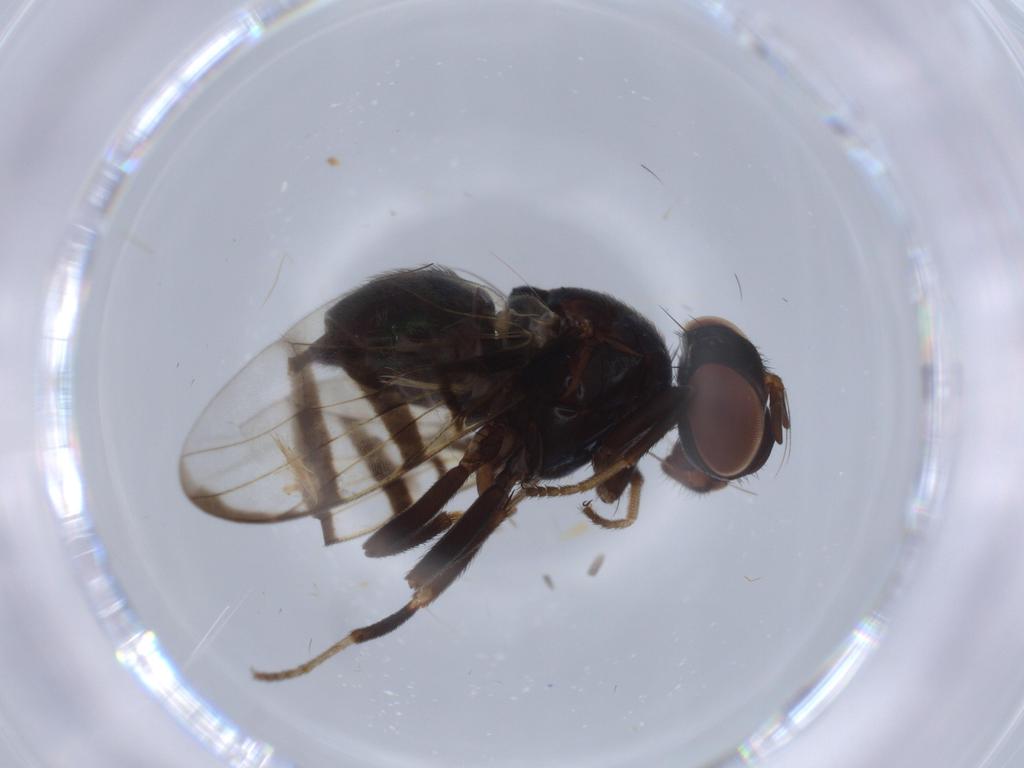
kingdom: Animalia
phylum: Arthropoda
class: Insecta
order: Diptera
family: Platystomatidae
